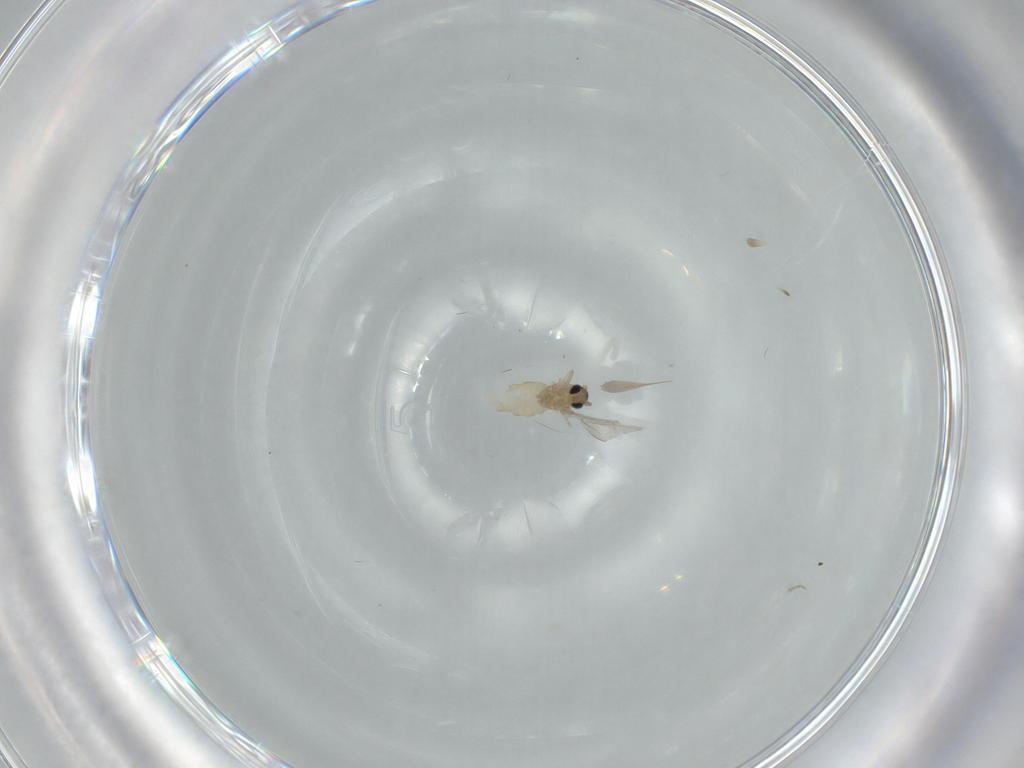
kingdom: Animalia
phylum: Arthropoda
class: Insecta
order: Diptera
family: Cecidomyiidae
